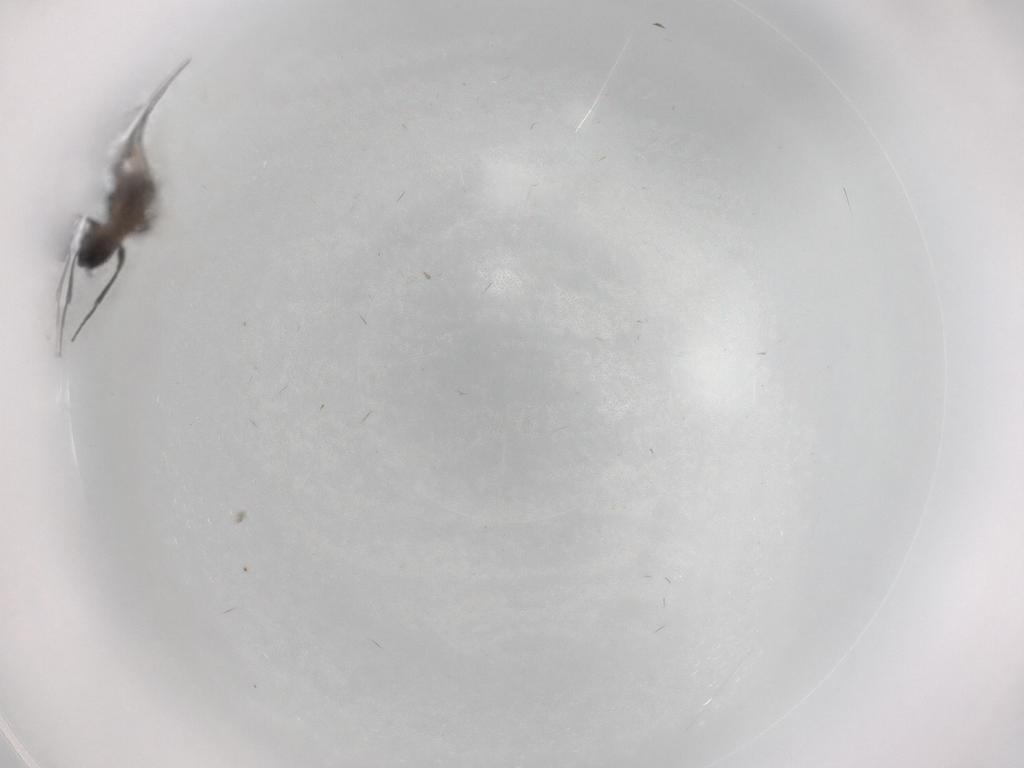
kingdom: Animalia
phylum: Arthropoda
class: Insecta
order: Hymenoptera
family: Bethylidae
